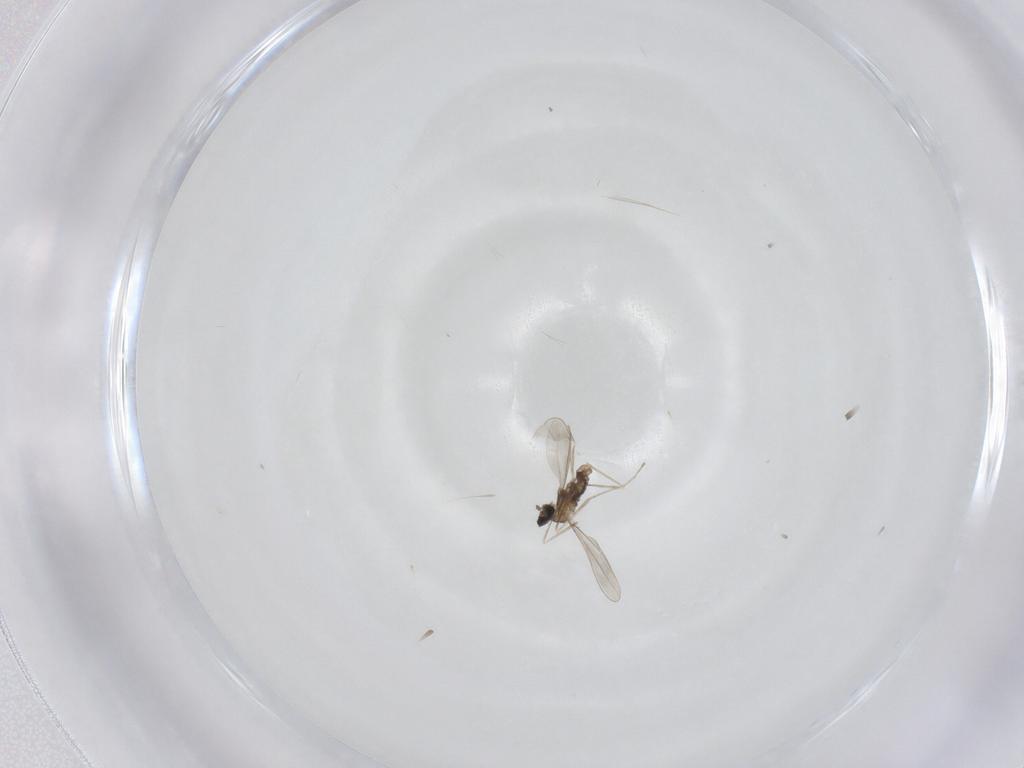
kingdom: Animalia
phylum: Arthropoda
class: Insecta
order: Diptera
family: Cecidomyiidae
